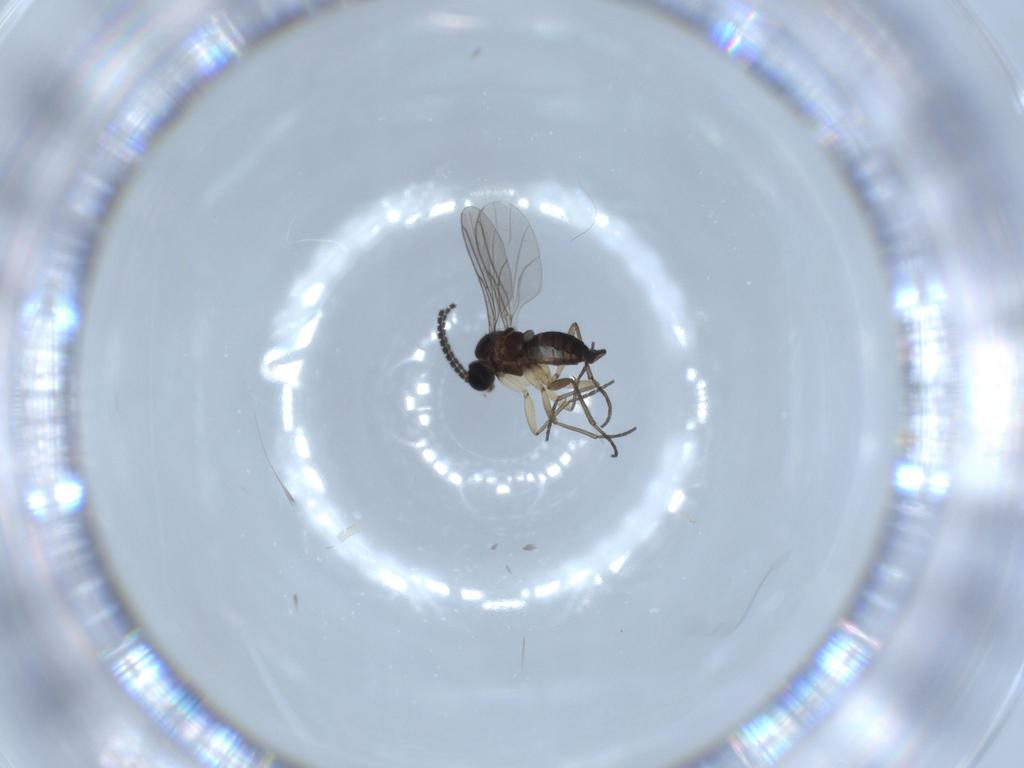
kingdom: Animalia
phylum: Arthropoda
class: Insecta
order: Diptera
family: Sciaridae
